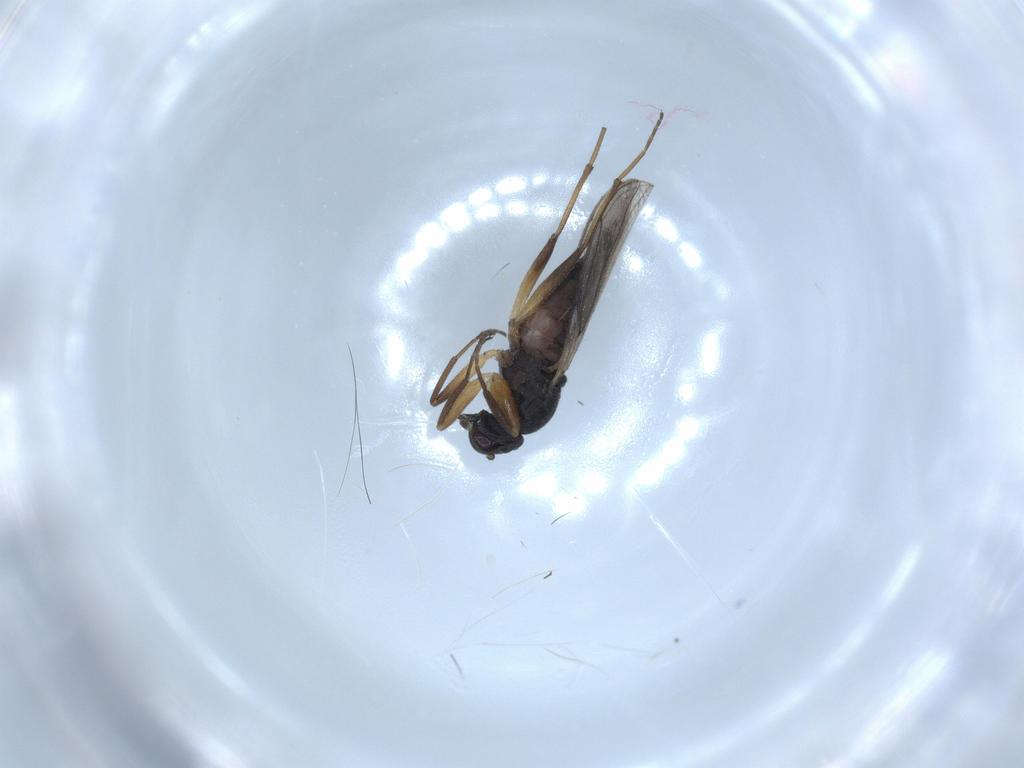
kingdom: Animalia
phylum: Arthropoda
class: Insecta
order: Diptera
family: Hybotidae
